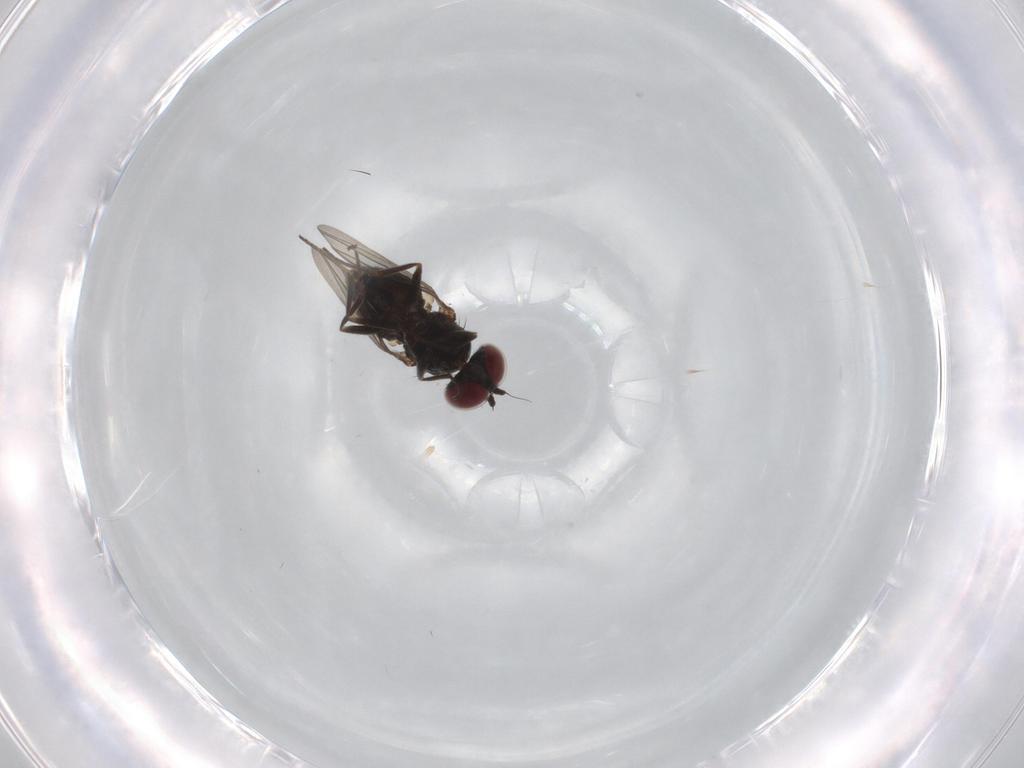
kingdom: Animalia
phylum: Arthropoda
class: Insecta
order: Diptera
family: Dolichopodidae
